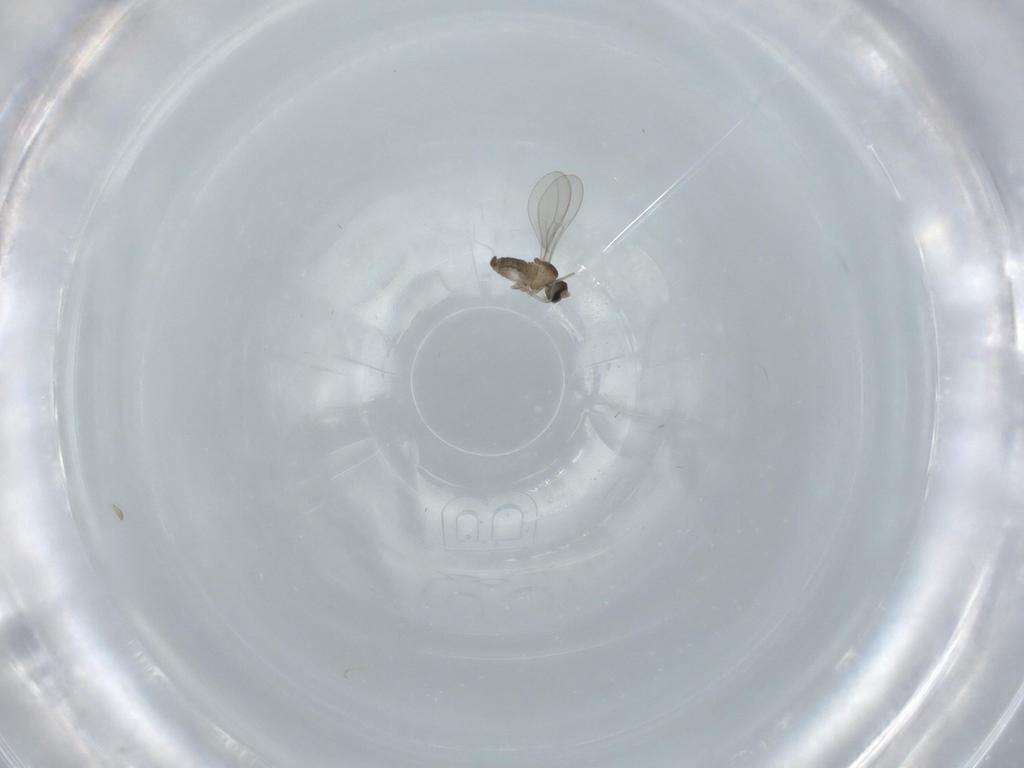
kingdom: Animalia
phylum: Arthropoda
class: Insecta
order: Diptera
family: Cecidomyiidae
